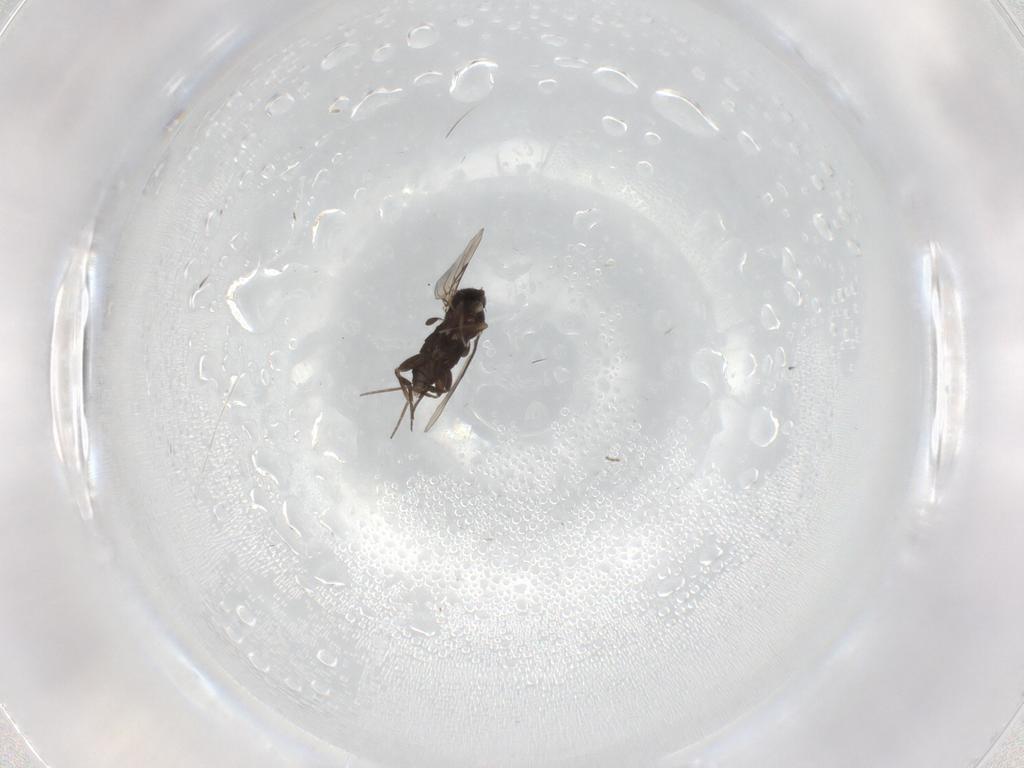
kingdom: Animalia
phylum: Arthropoda
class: Insecta
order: Diptera
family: Phoridae
